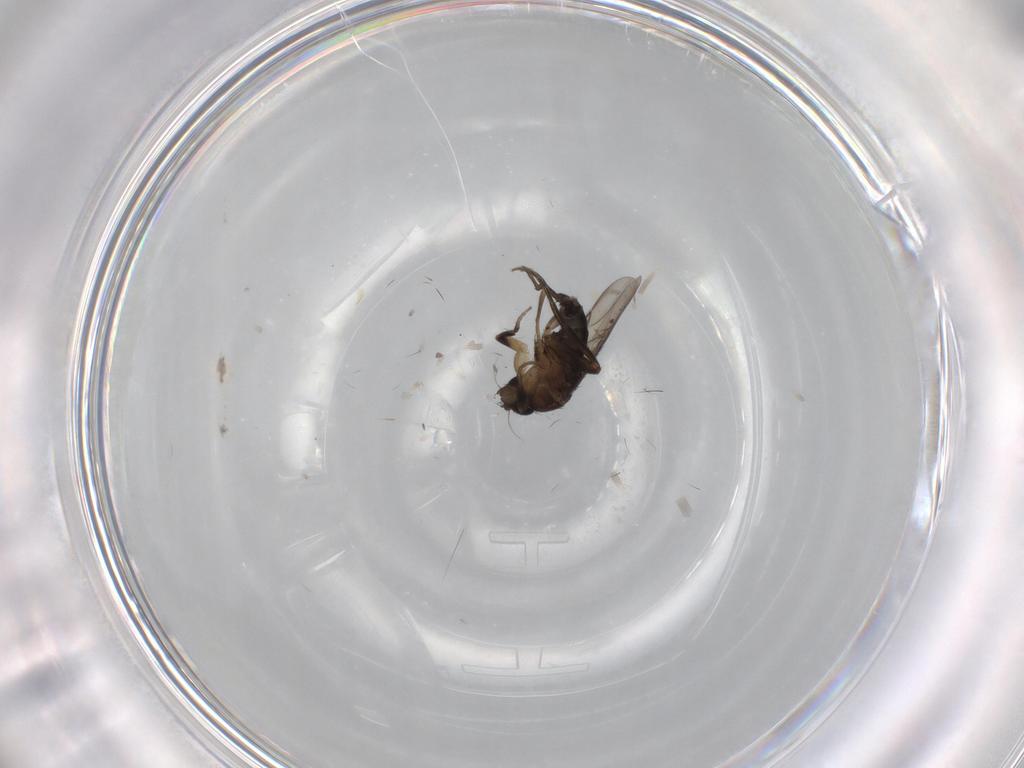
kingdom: Animalia
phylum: Arthropoda
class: Insecta
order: Diptera
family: Phoridae
